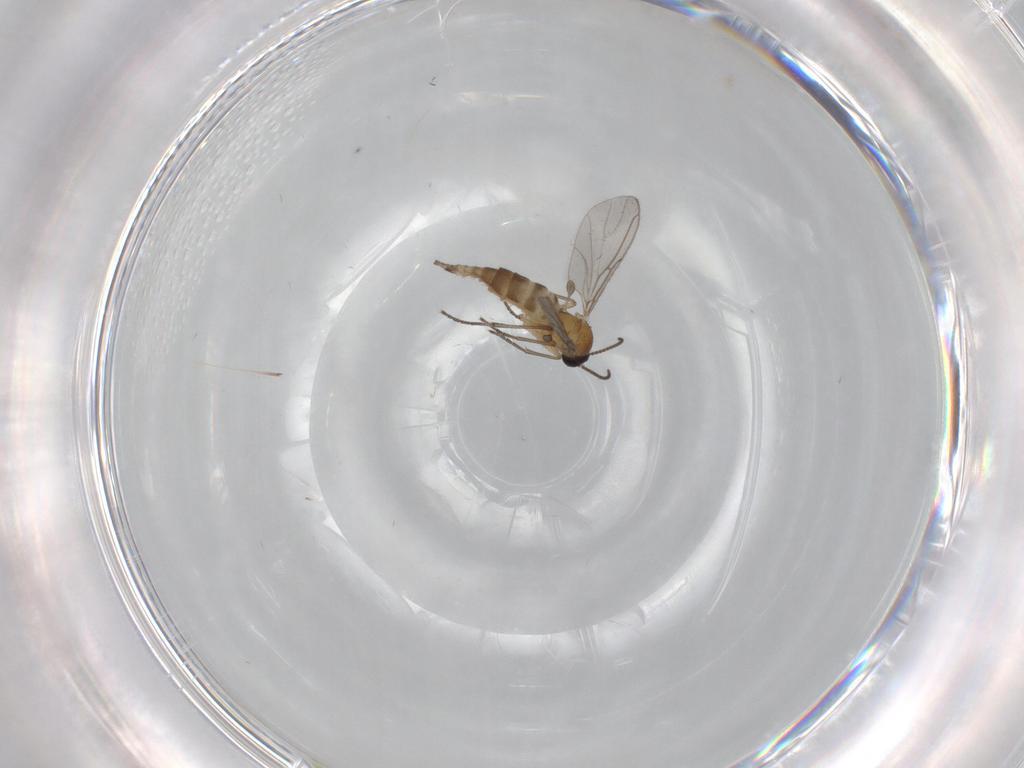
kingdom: Animalia
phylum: Arthropoda
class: Insecta
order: Diptera
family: Sciaridae
